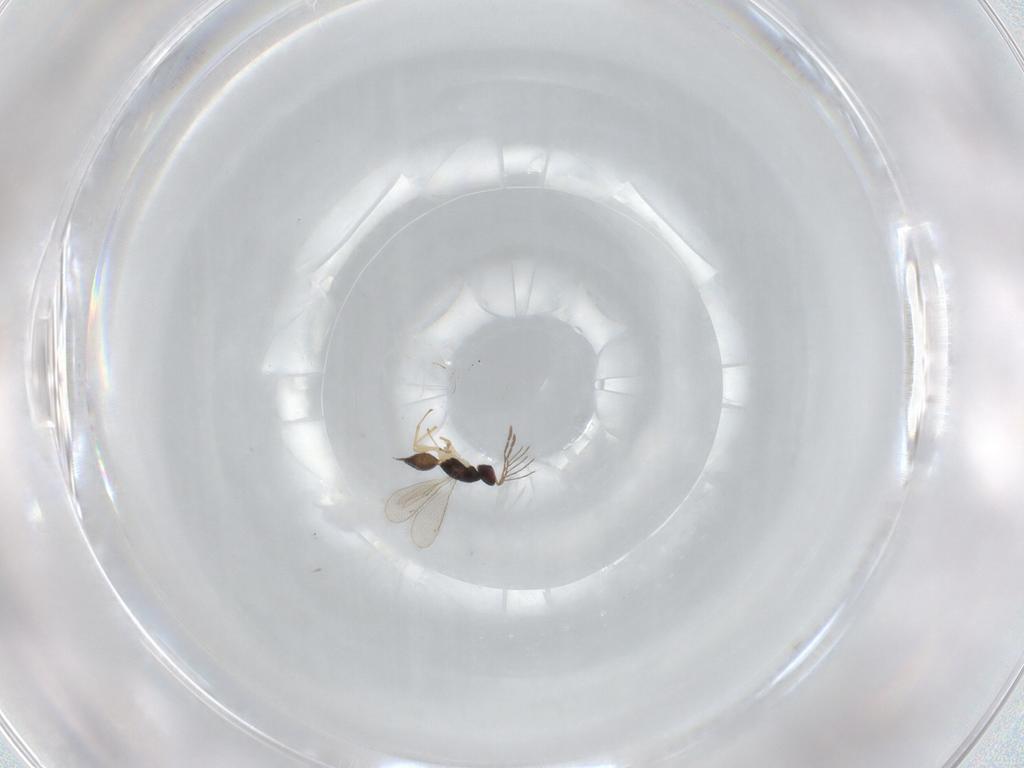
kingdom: Animalia
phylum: Arthropoda
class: Insecta
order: Hymenoptera
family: Eulophidae
